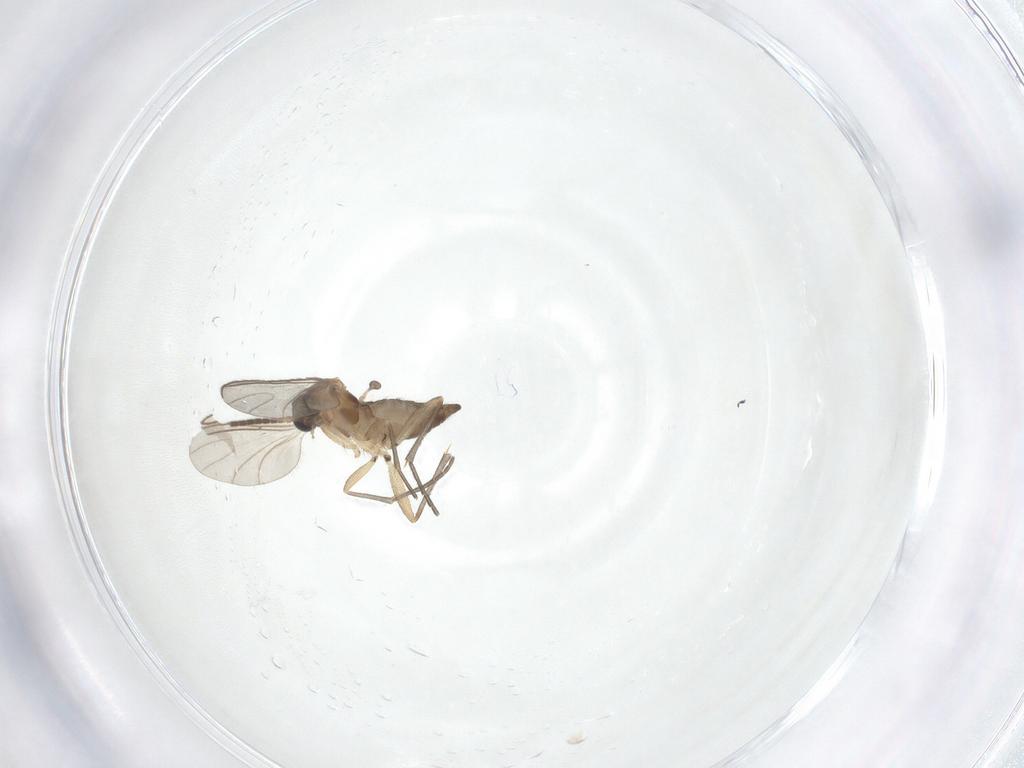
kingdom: Animalia
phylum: Arthropoda
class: Insecta
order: Diptera
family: Sciaridae
